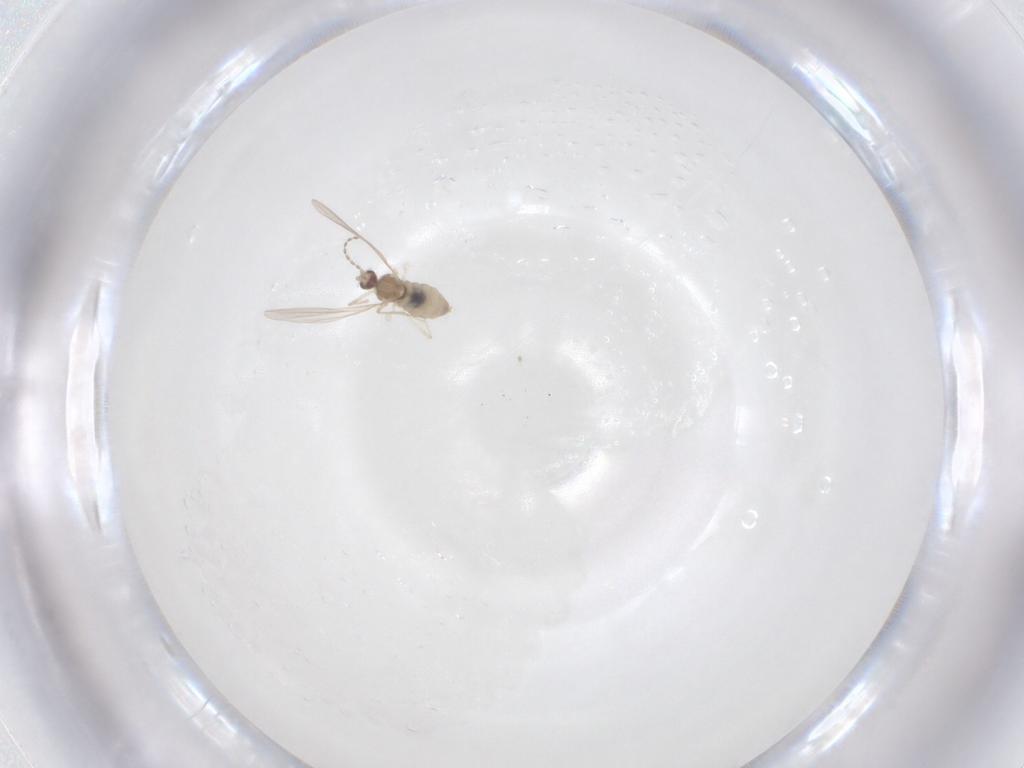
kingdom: Animalia
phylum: Arthropoda
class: Insecta
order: Diptera
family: Cecidomyiidae
